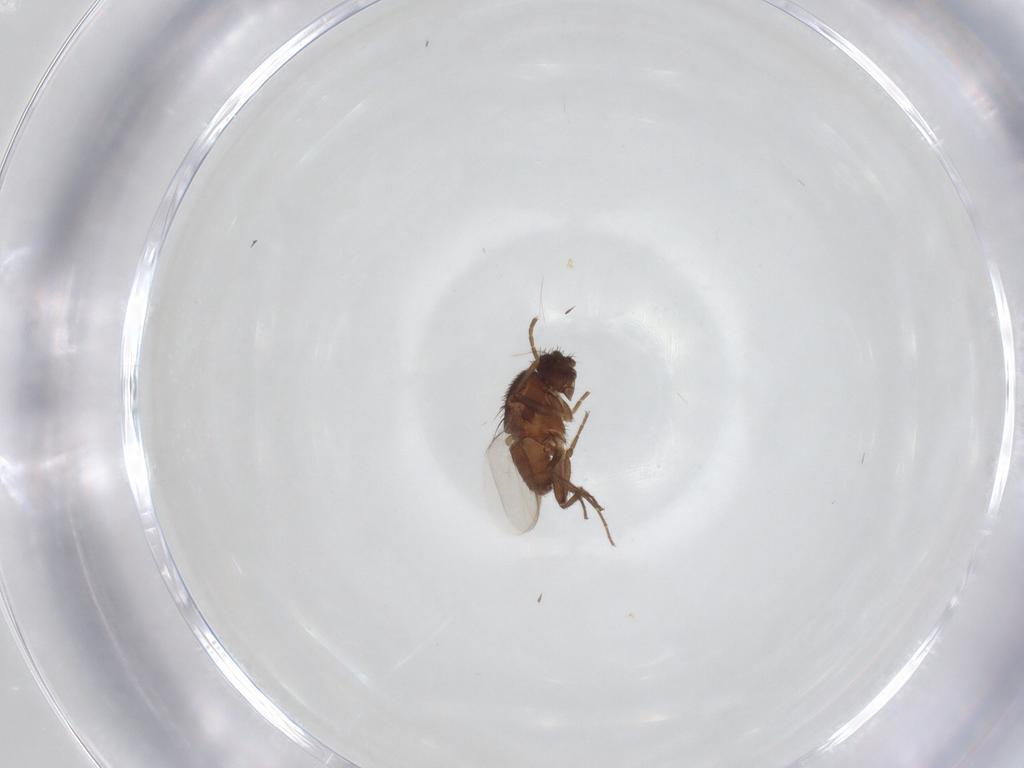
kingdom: Animalia
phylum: Arthropoda
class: Insecta
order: Diptera
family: Sphaeroceridae
